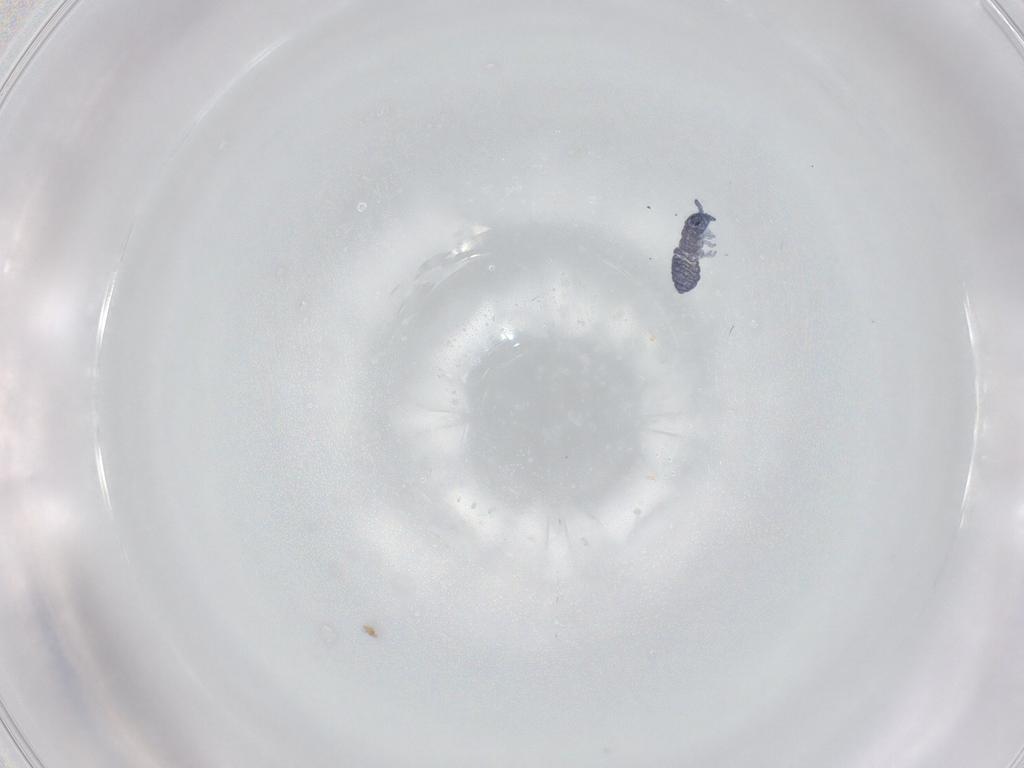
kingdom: Animalia
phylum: Arthropoda
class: Collembola
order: Poduromorpha
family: Hypogastruridae
